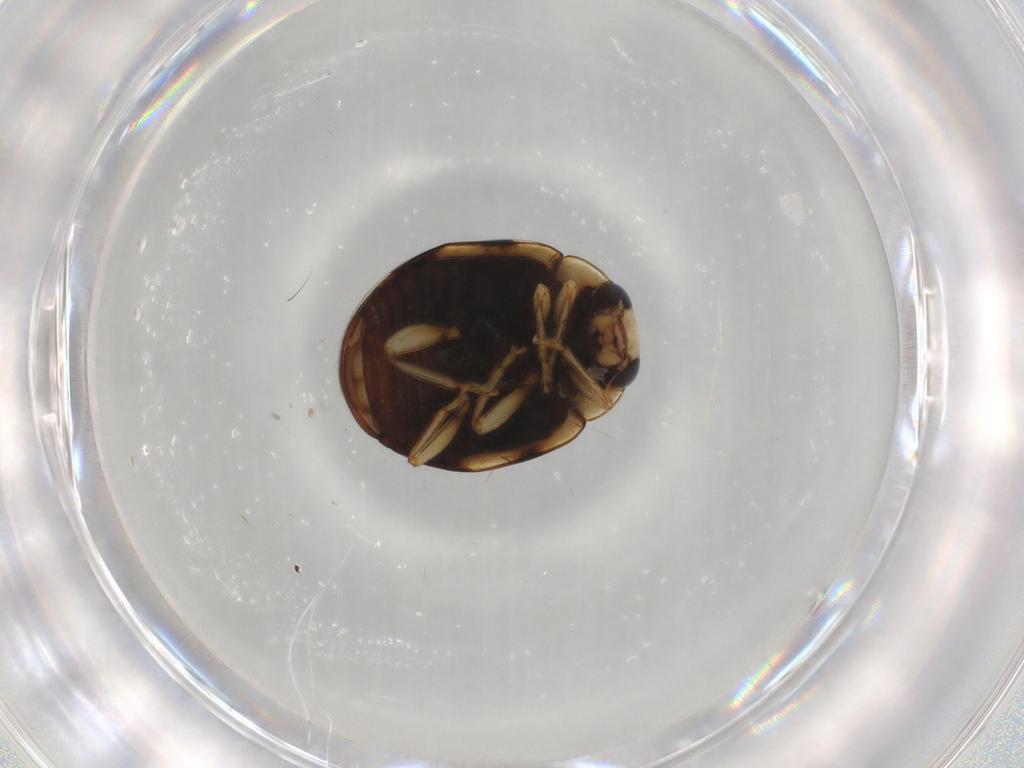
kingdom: Animalia
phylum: Arthropoda
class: Insecta
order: Coleoptera
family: Coccinellidae
